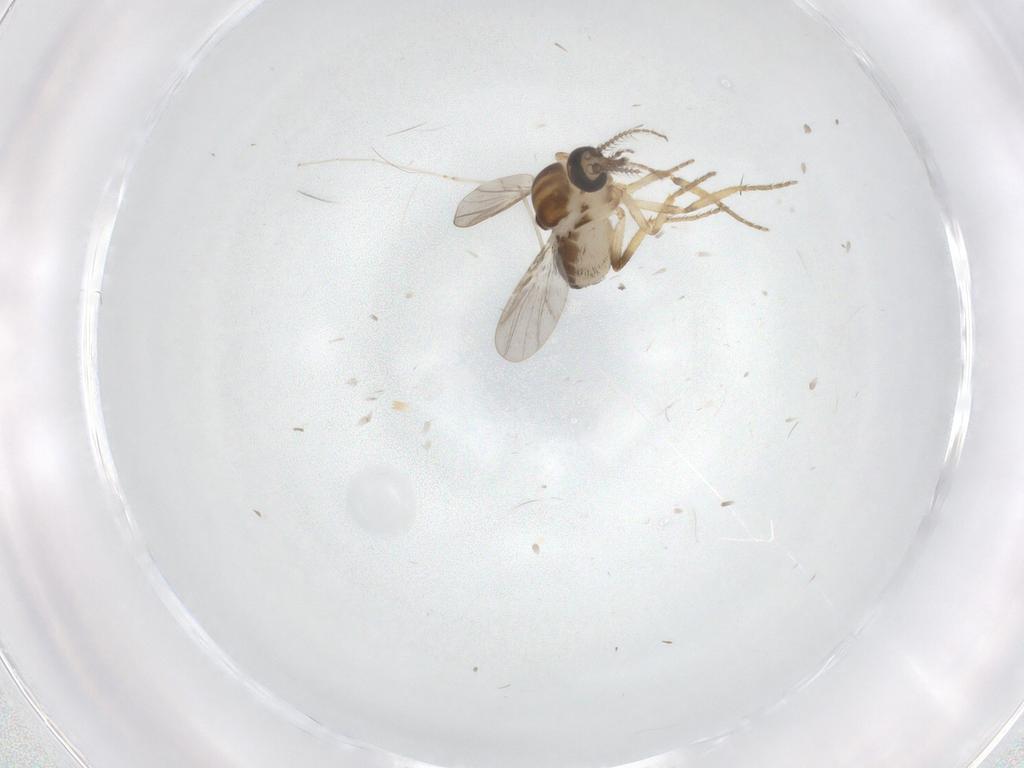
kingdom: Animalia
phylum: Arthropoda
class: Insecta
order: Diptera
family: Ceratopogonidae
